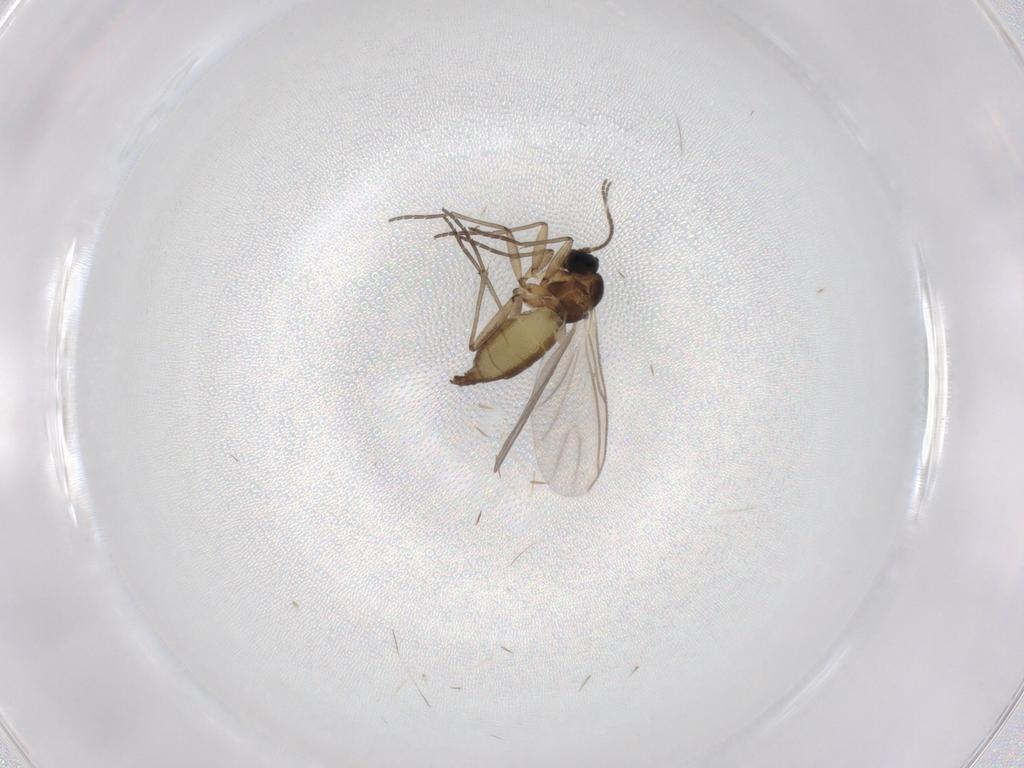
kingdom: Animalia
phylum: Arthropoda
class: Insecta
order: Diptera
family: Cecidomyiidae
